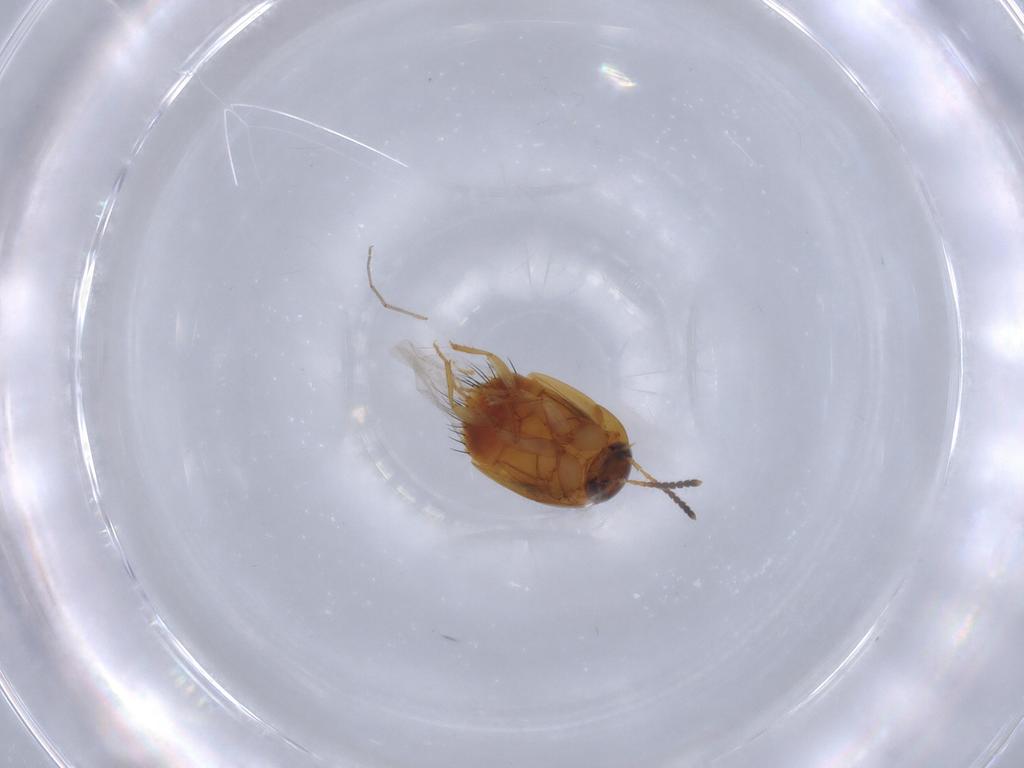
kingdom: Animalia
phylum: Arthropoda
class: Insecta
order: Coleoptera
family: Staphylinidae
